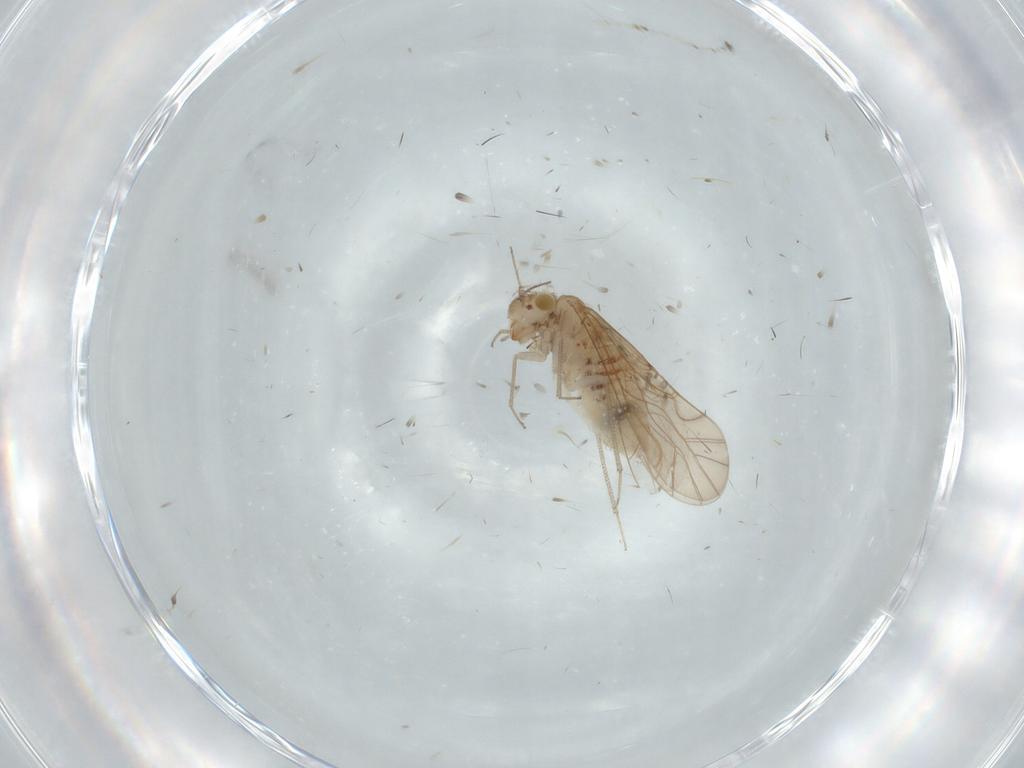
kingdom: Animalia
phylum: Arthropoda
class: Insecta
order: Psocodea
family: Lachesillidae
